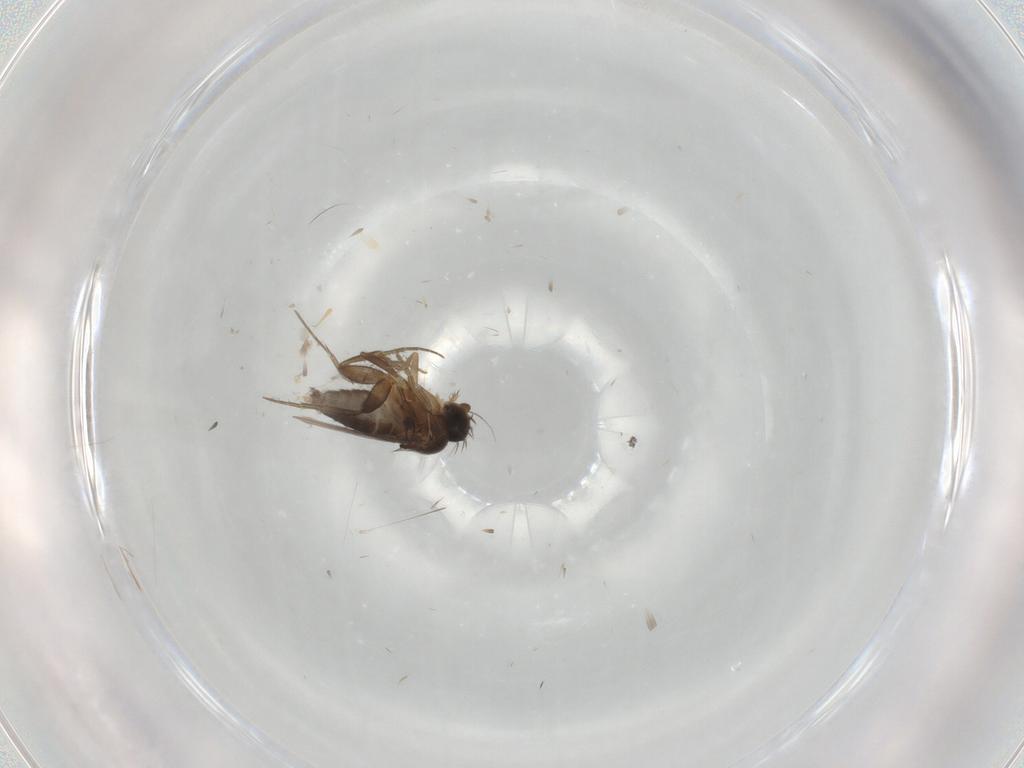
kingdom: Animalia
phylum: Arthropoda
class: Insecta
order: Diptera
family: Phoridae
